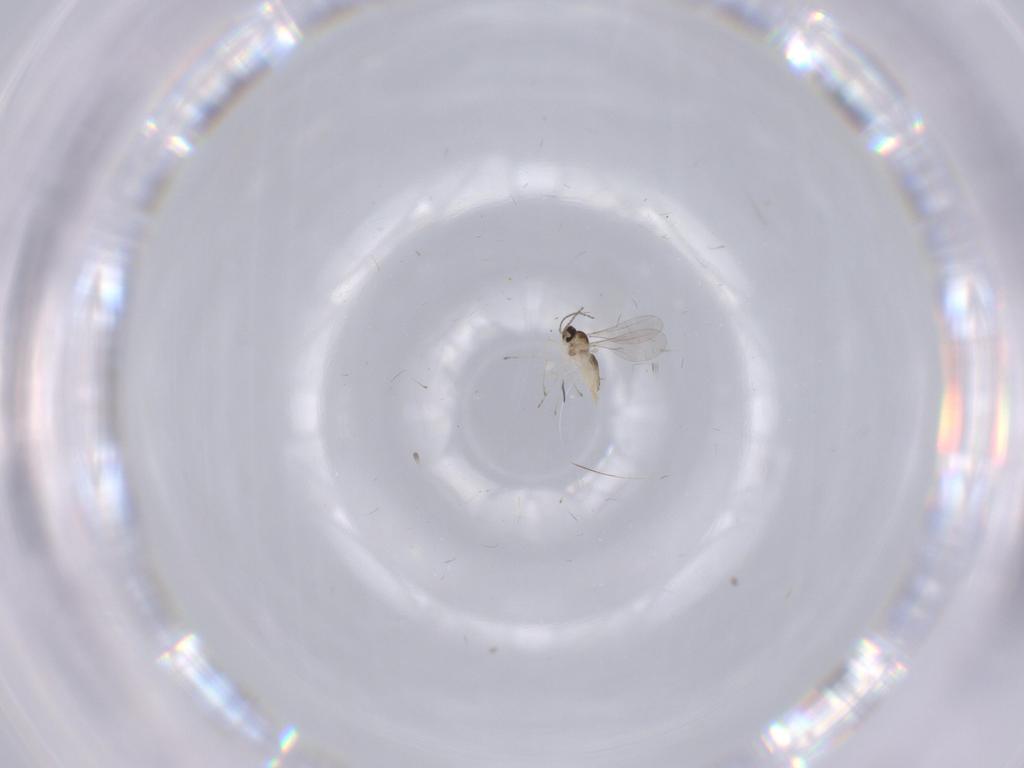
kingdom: Animalia
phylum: Arthropoda
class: Insecta
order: Diptera
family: Cecidomyiidae
